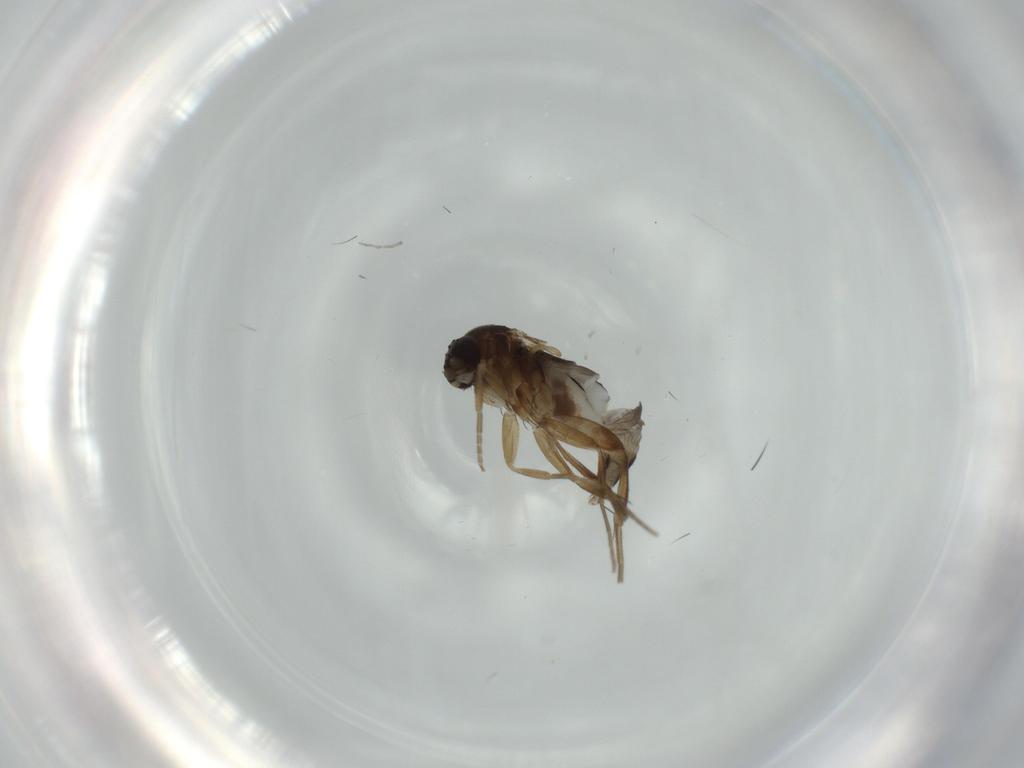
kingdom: Animalia
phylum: Arthropoda
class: Insecta
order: Diptera
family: Phoridae
